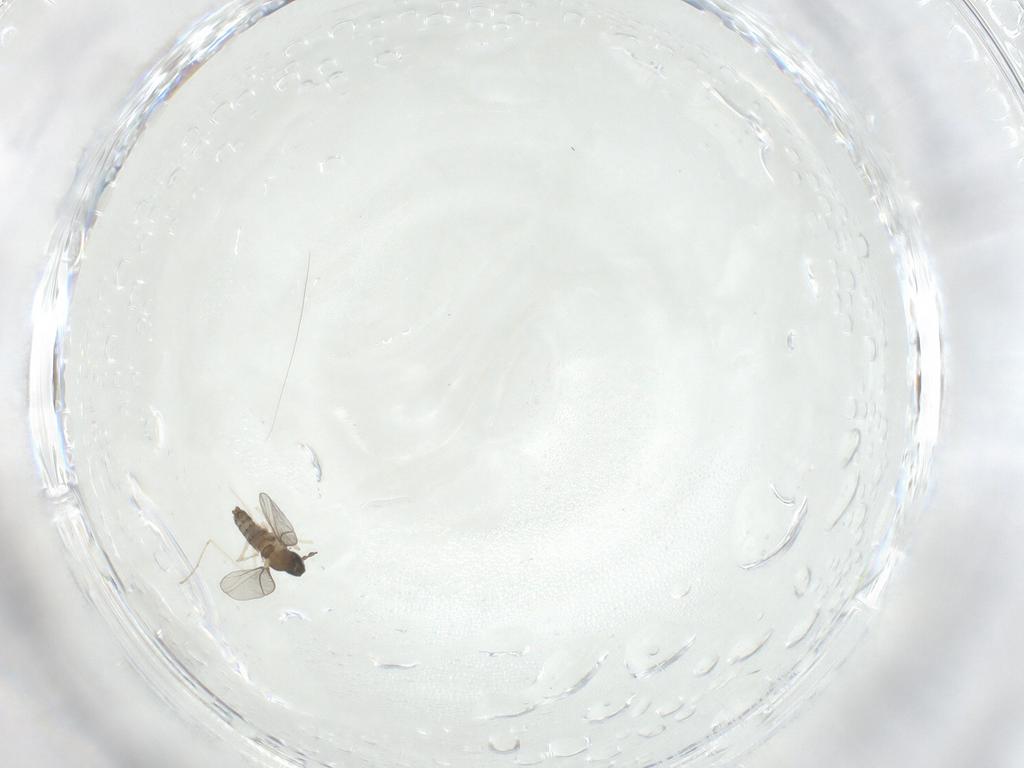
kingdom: Animalia
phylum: Arthropoda
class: Insecta
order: Diptera
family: Cecidomyiidae
